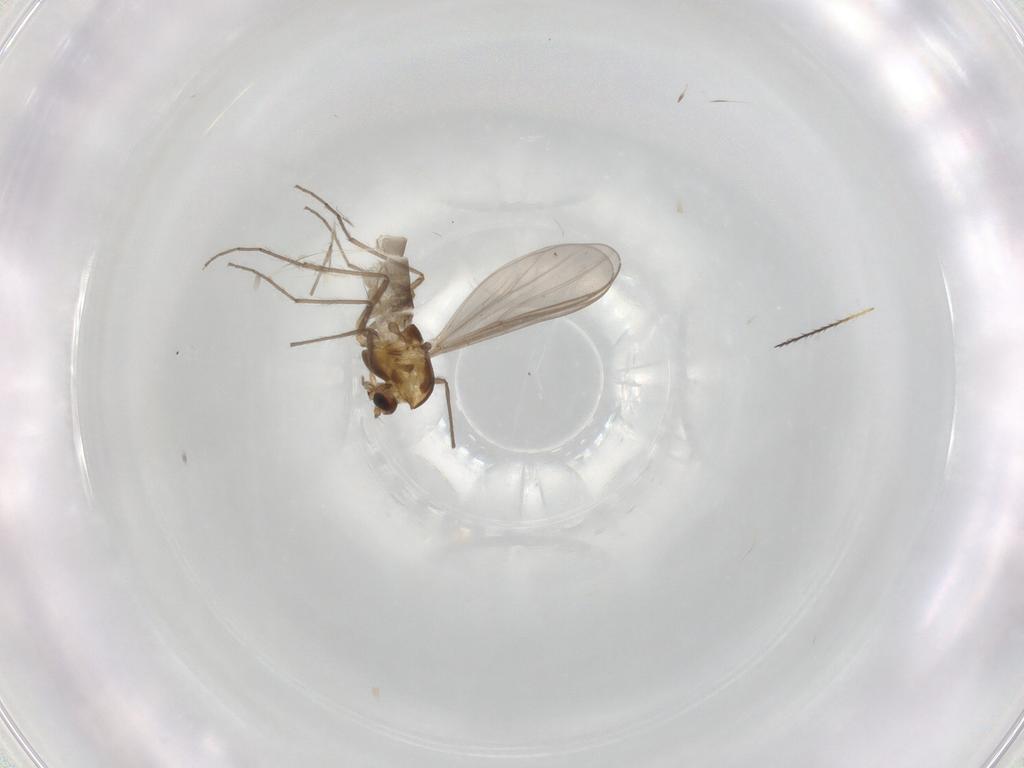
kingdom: Animalia
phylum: Arthropoda
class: Insecta
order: Diptera
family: Phoridae
